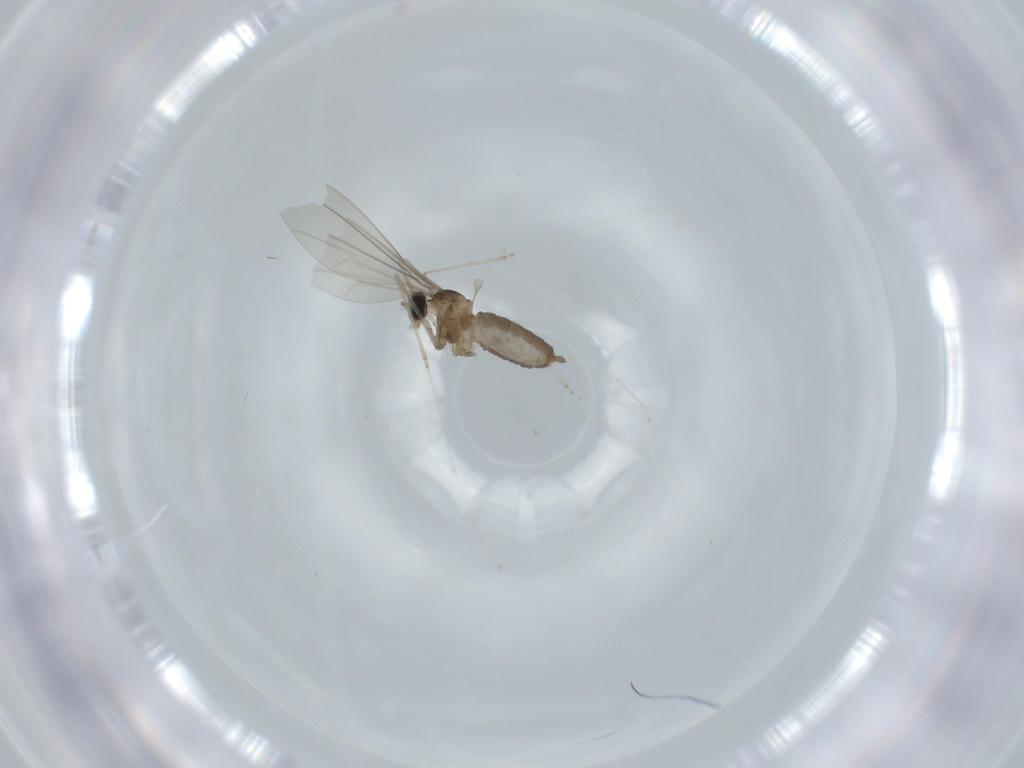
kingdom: Animalia
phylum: Arthropoda
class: Insecta
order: Diptera
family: Cecidomyiidae
